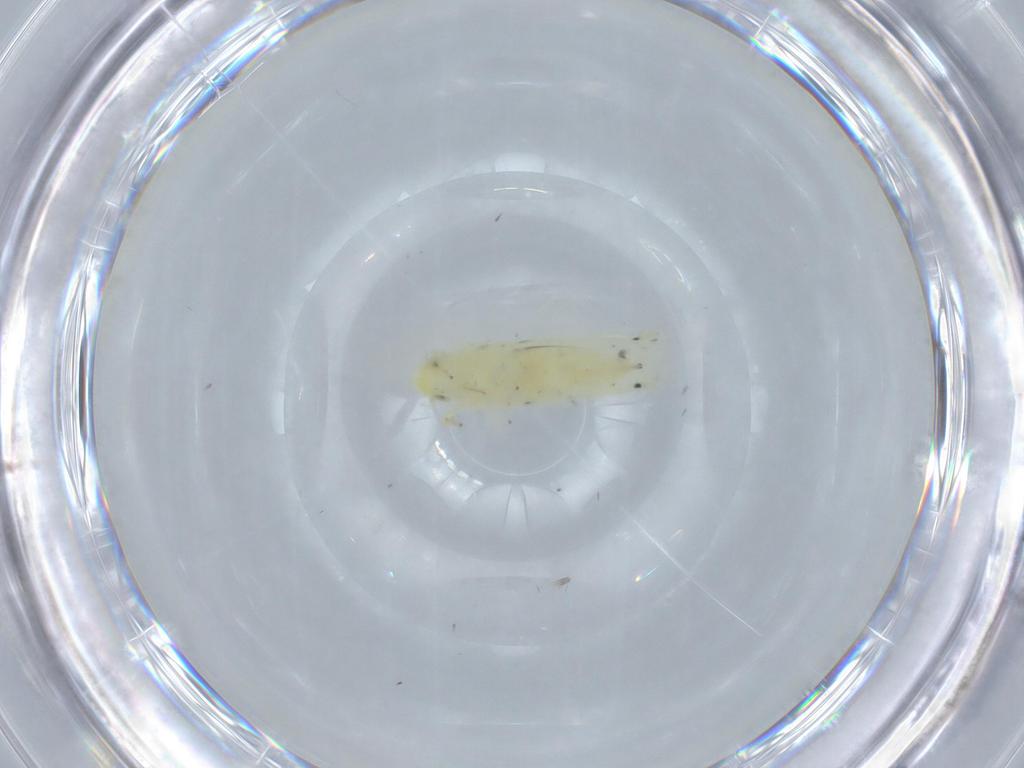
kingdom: Animalia
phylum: Arthropoda
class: Insecta
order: Hemiptera
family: Cicadellidae
